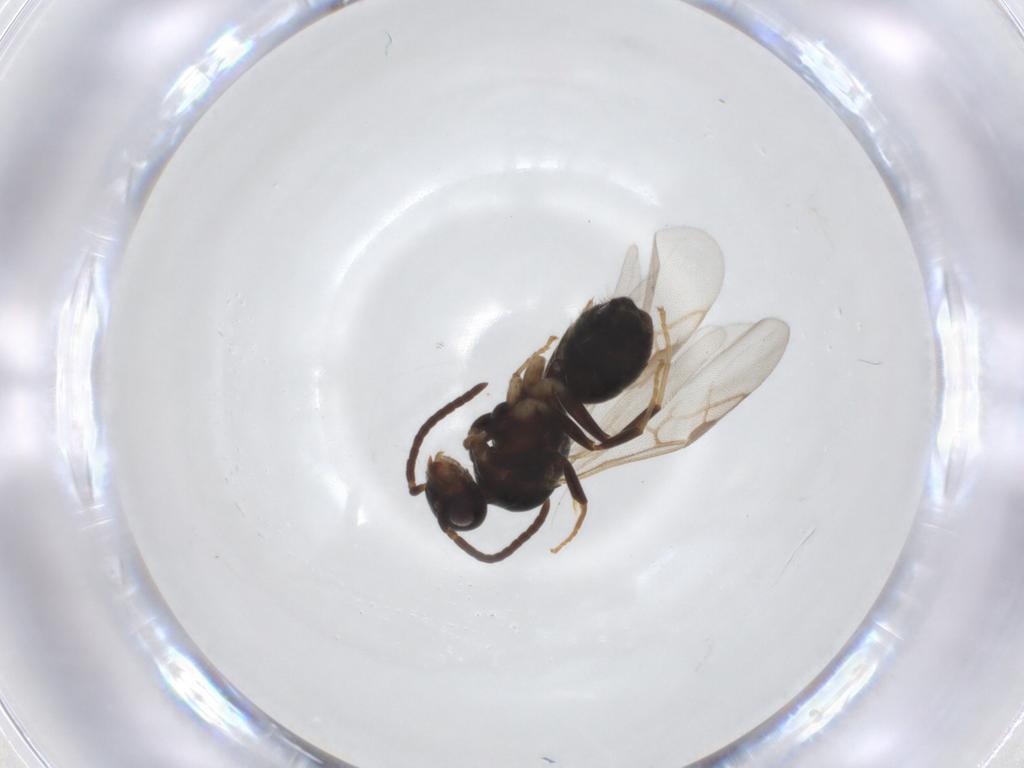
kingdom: Animalia
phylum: Arthropoda
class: Insecta
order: Hymenoptera
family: Formicidae
